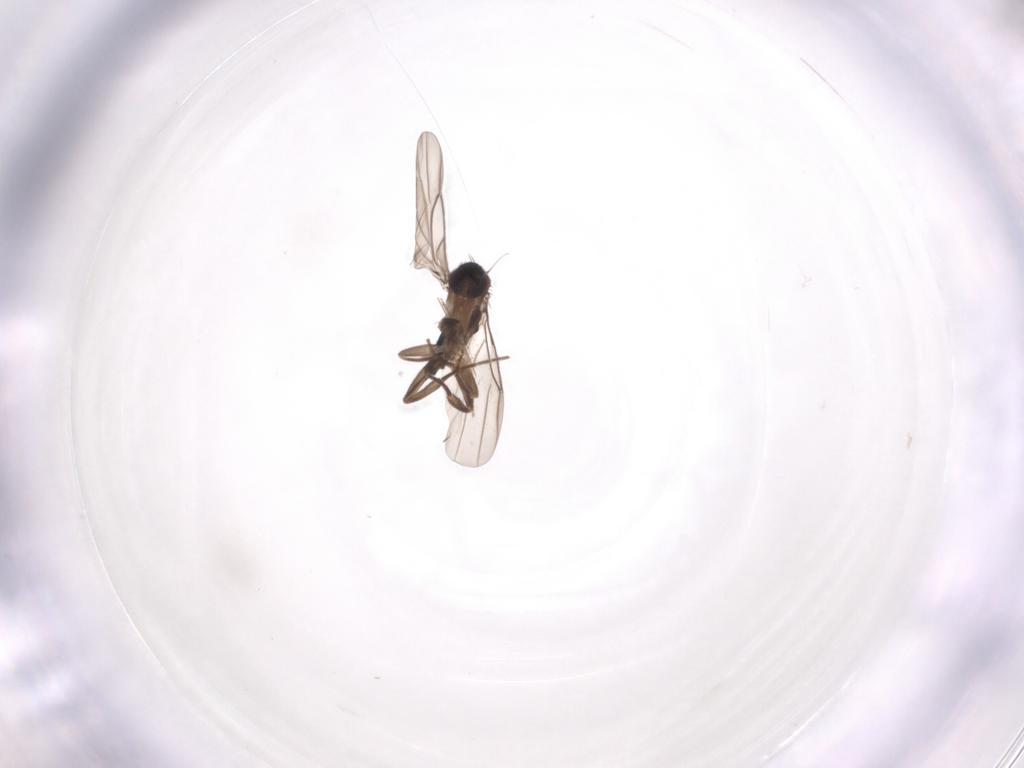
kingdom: Animalia
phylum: Arthropoda
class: Insecta
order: Diptera
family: Phoridae
